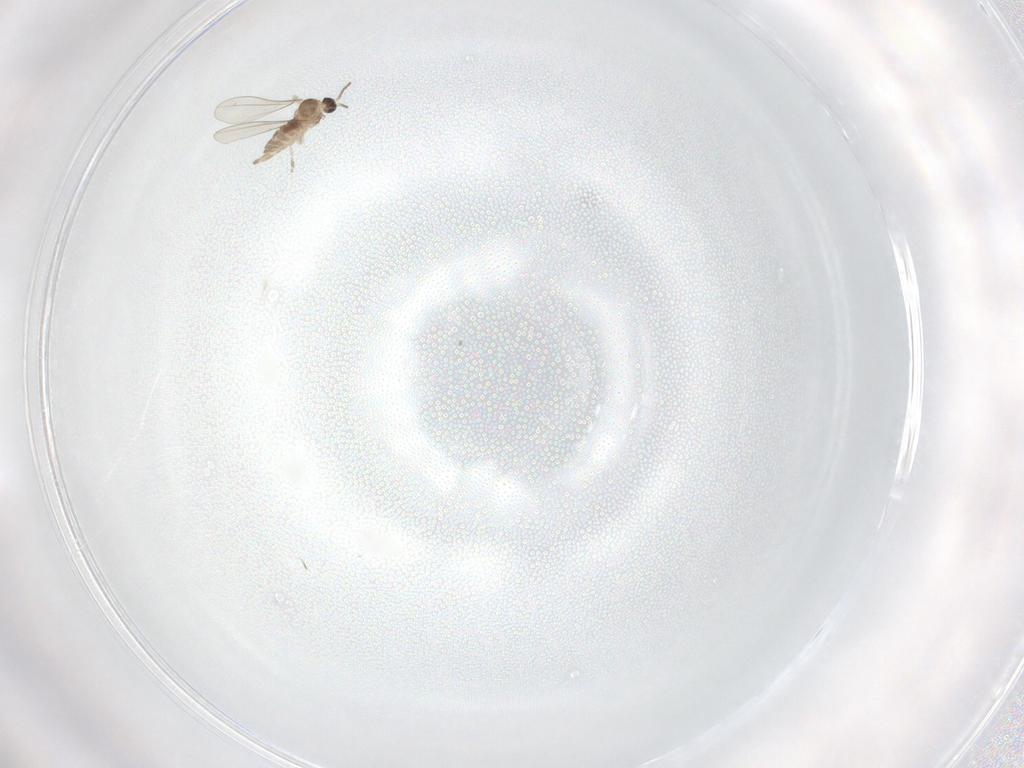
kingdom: Animalia
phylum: Arthropoda
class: Insecta
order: Diptera
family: Cecidomyiidae
